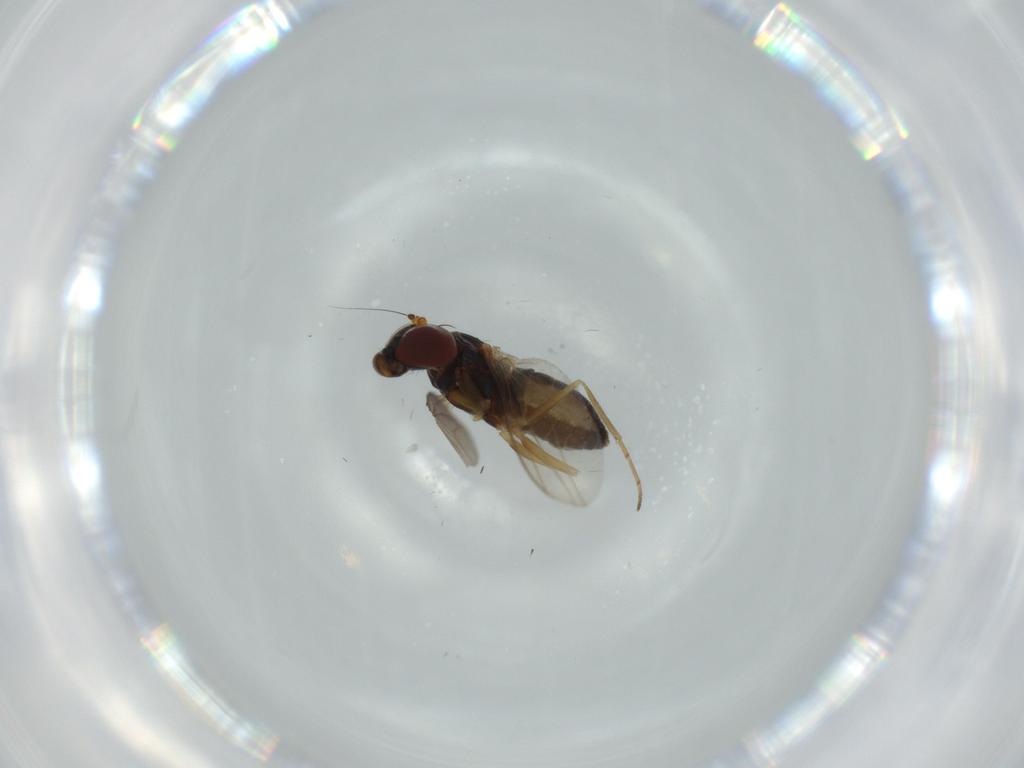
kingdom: Animalia
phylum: Arthropoda
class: Insecta
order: Diptera
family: Dolichopodidae
